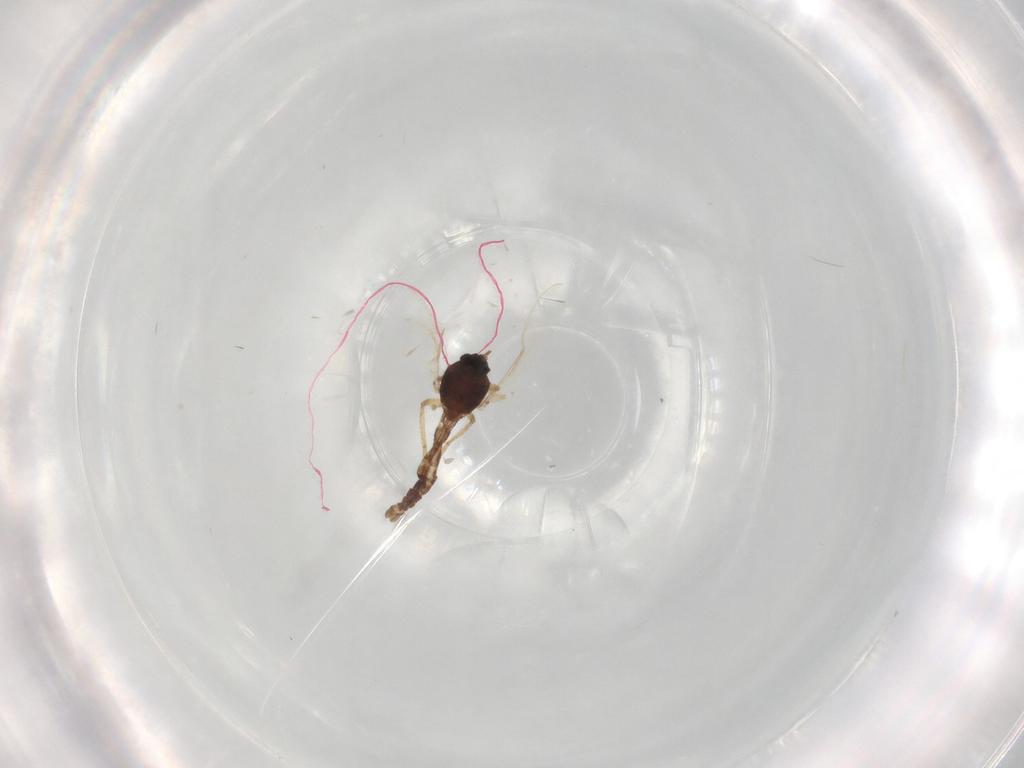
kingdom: Animalia
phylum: Arthropoda
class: Insecta
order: Diptera
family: Ceratopogonidae
